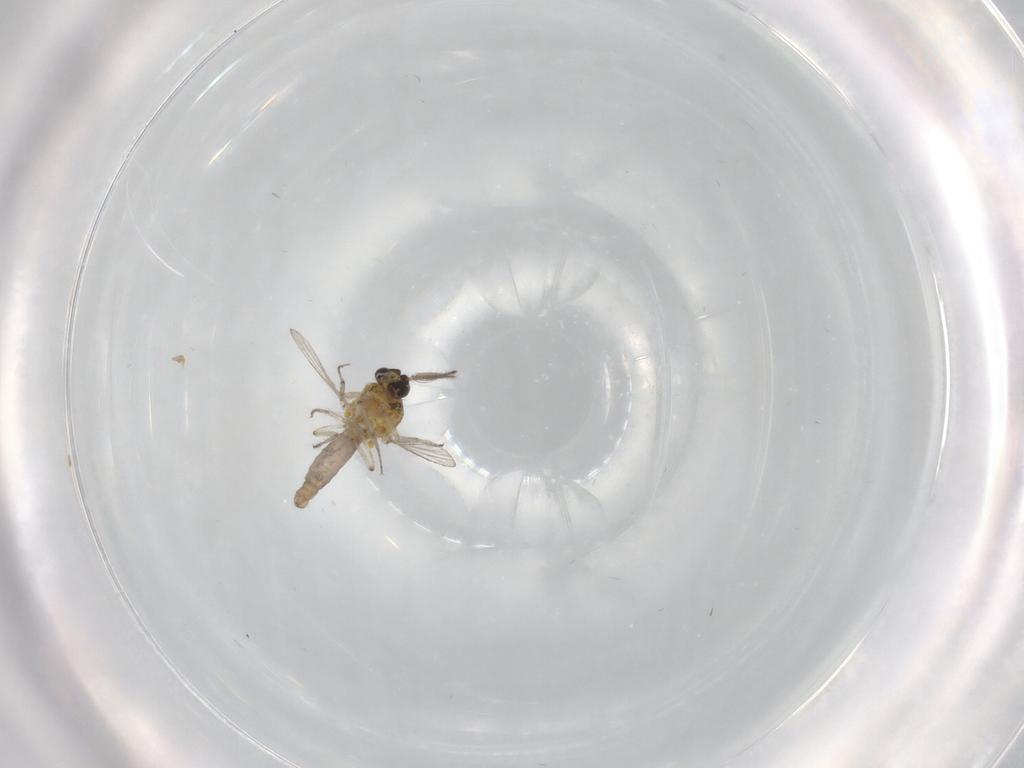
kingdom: Animalia
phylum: Arthropoda
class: Insecta
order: Diptera
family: Ceratopogonidae
